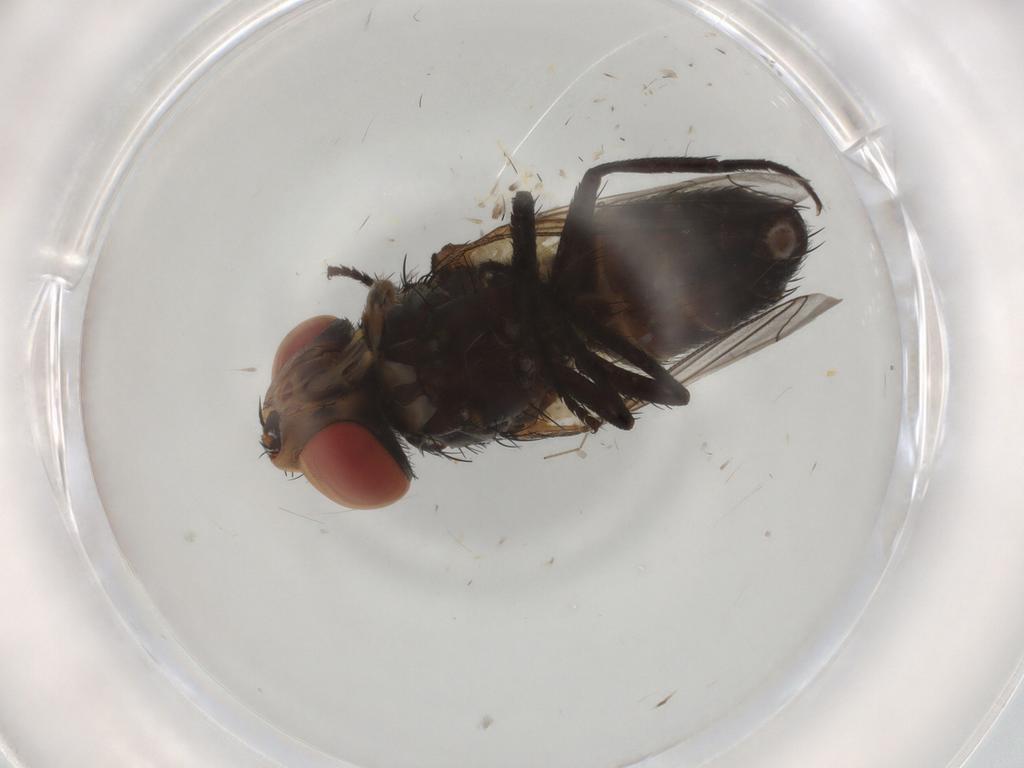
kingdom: Animalia
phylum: Arthropoda
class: Insecta
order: Diptera
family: Sarcophagidae
